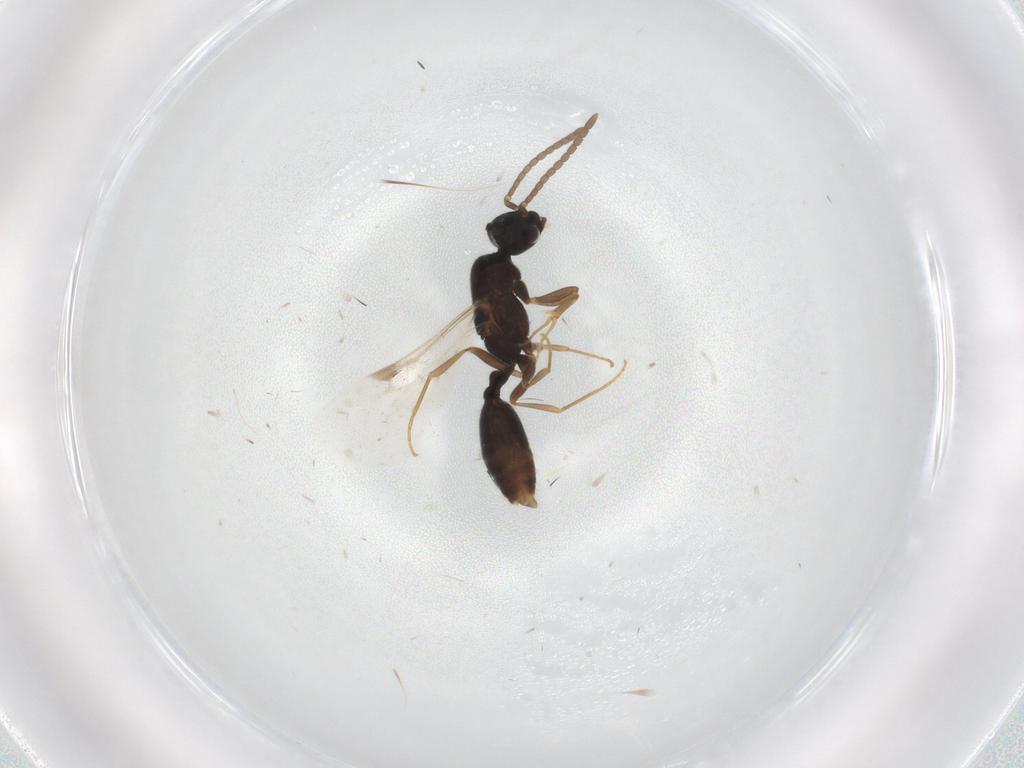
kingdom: Animalia
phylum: Arthropoda
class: Insecta
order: Hymenoptera
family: Formicidae
